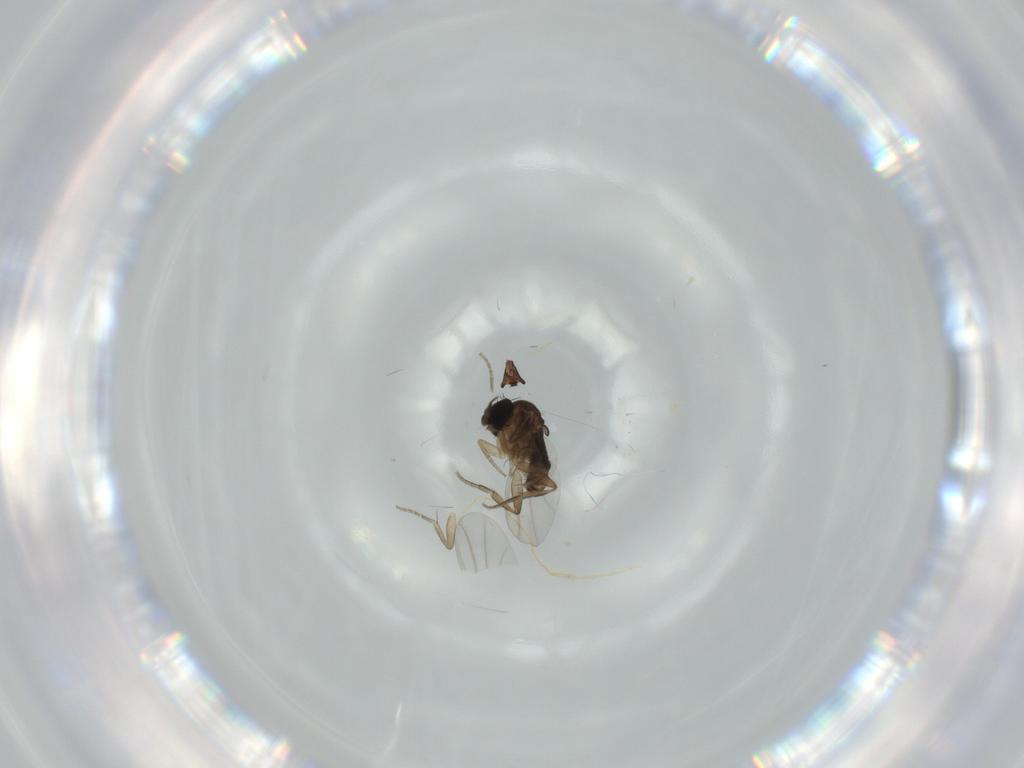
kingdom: Animalia
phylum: Arthropoda
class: Insecta
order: Diptera
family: Phoridae
